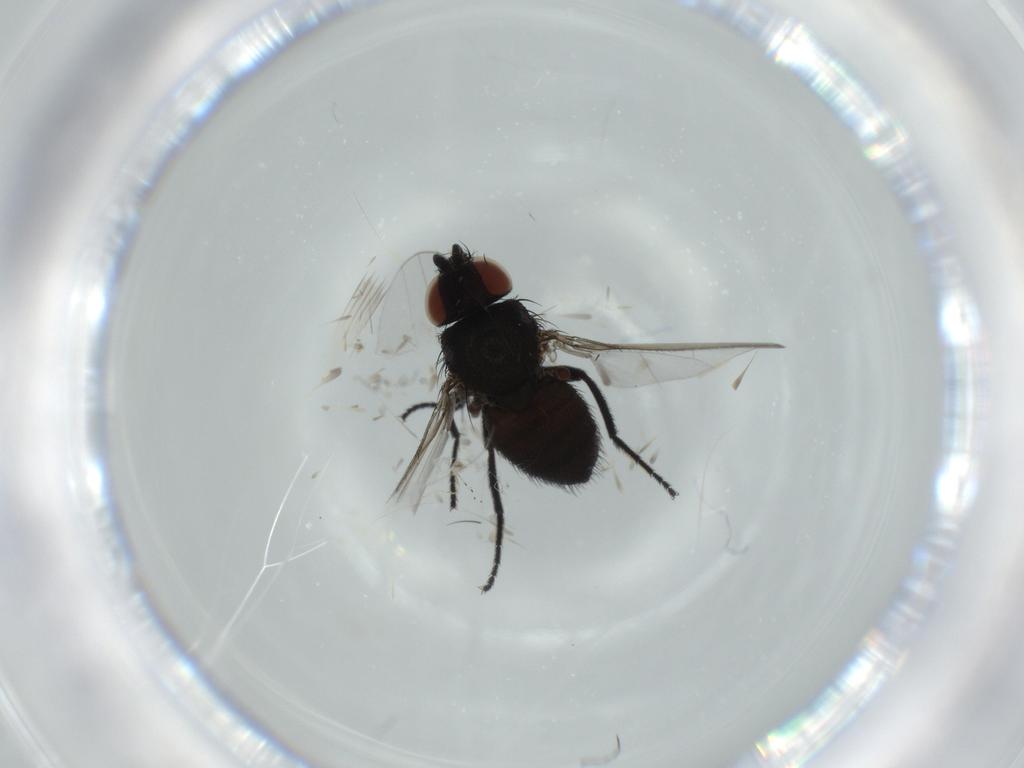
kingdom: Animalia
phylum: Arthropoda
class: Insecta
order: Diptera
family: Milichiidae
